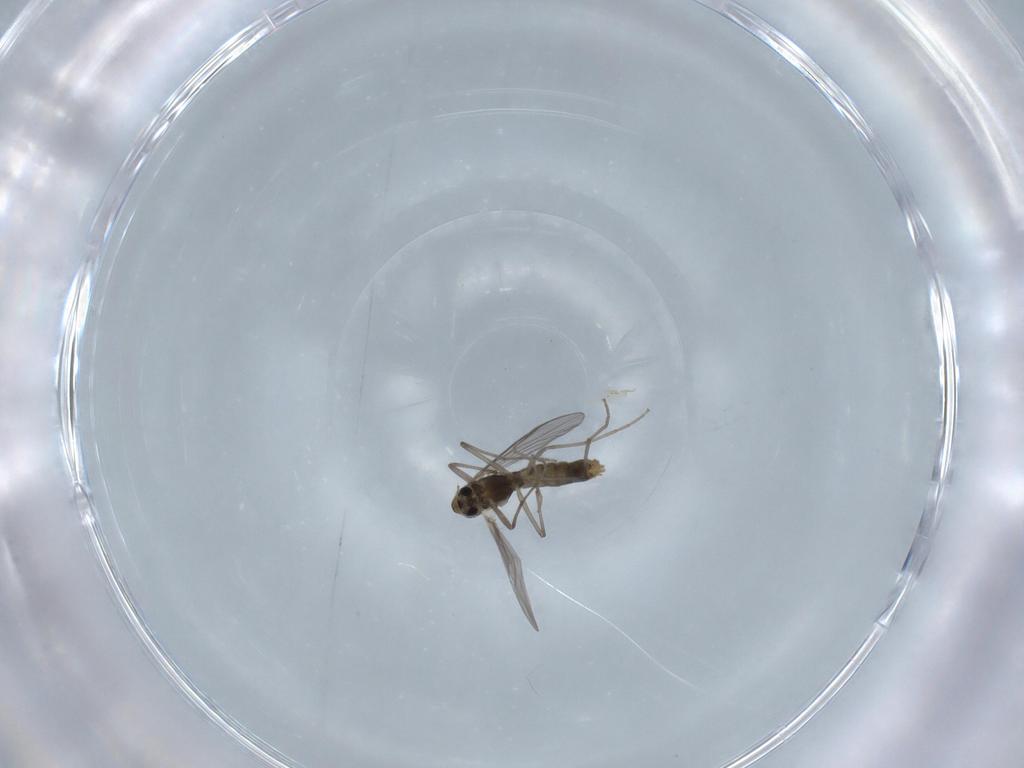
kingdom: Animalia
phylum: Arthropoda
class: Insecta
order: Diptera
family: Chironomidae
